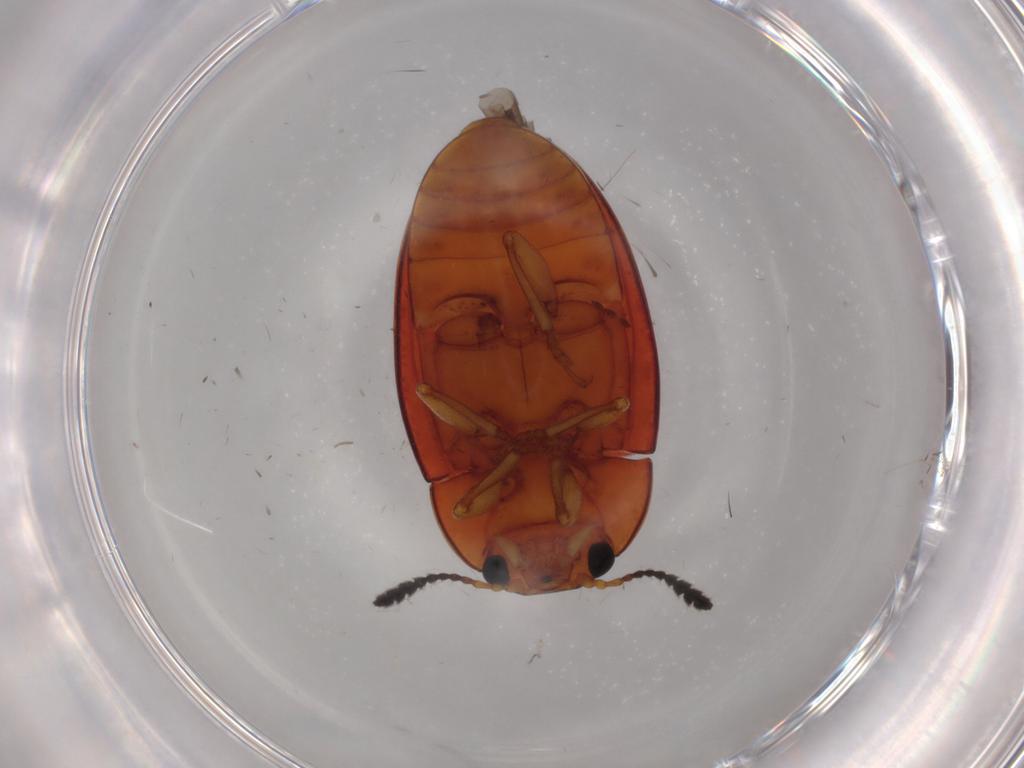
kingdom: Animalia
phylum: Arthropoda
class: Insecta
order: Coleoptera
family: Erotylidae
